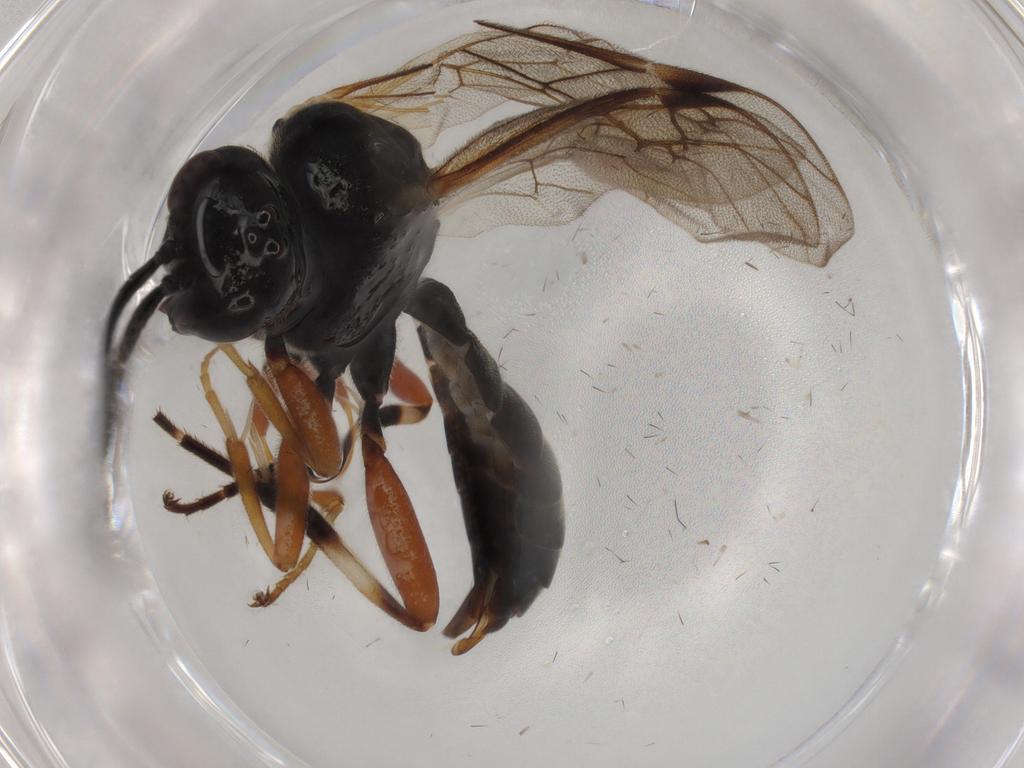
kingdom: Animalia
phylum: Arthropoda
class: Insecta
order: Hymenoptera
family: Ichneumonidae
